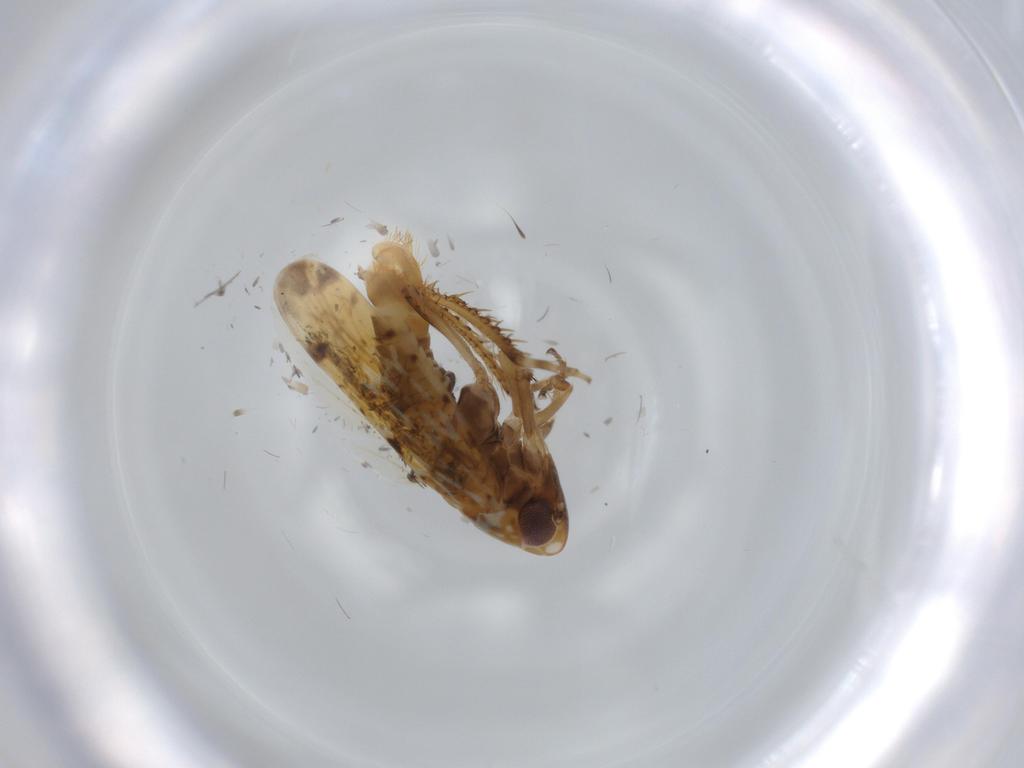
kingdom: Animalia
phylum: Arthropoda
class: Insecta
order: Hemiptera
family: Cicadellidae
